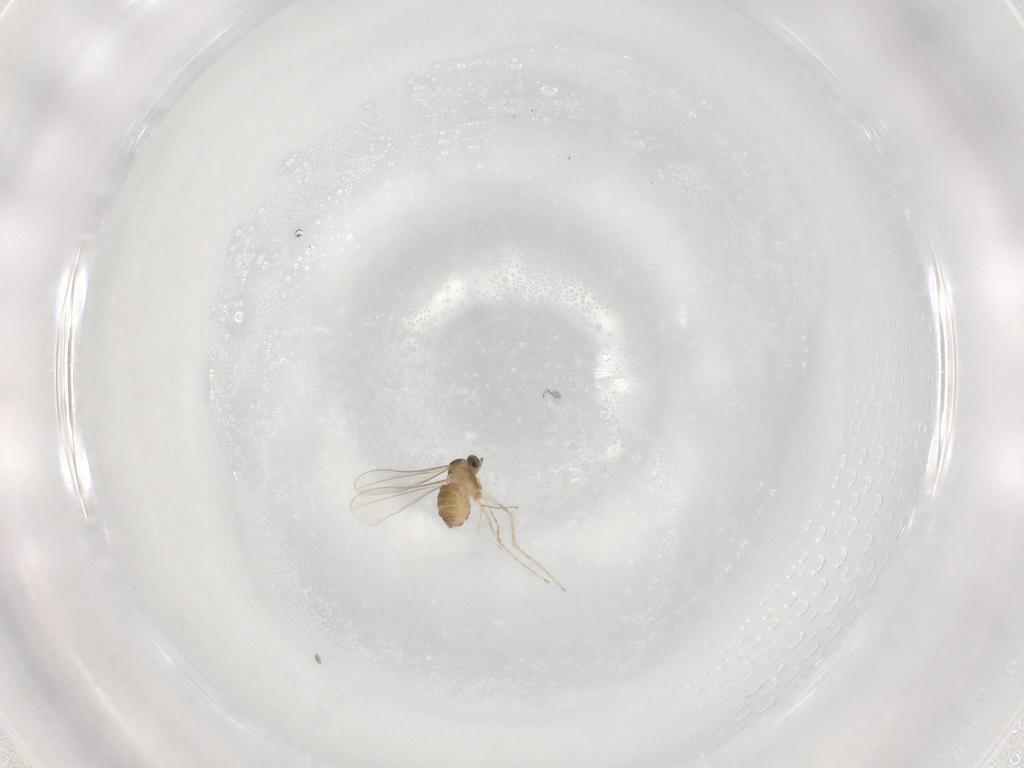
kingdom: Animalia
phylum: Arthropoda
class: Insecta
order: Diptera
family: Cecidomyiidae
